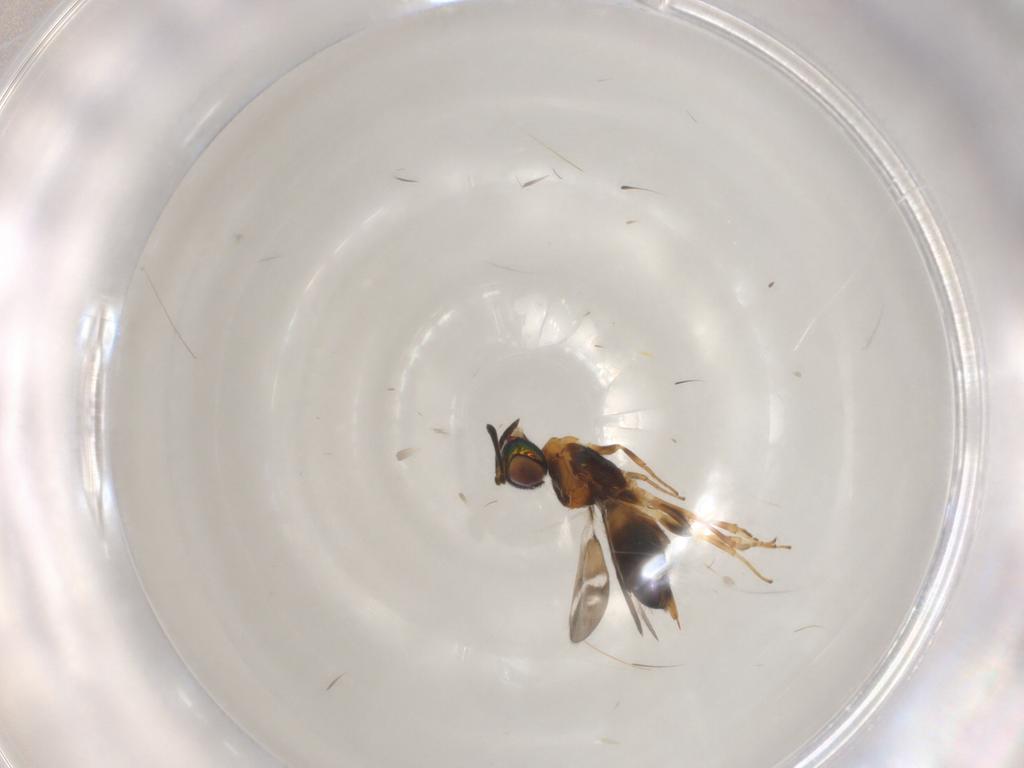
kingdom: Animalia
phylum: Arthropoda
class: Insecta
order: Hymenoptera
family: Eupelmidae
